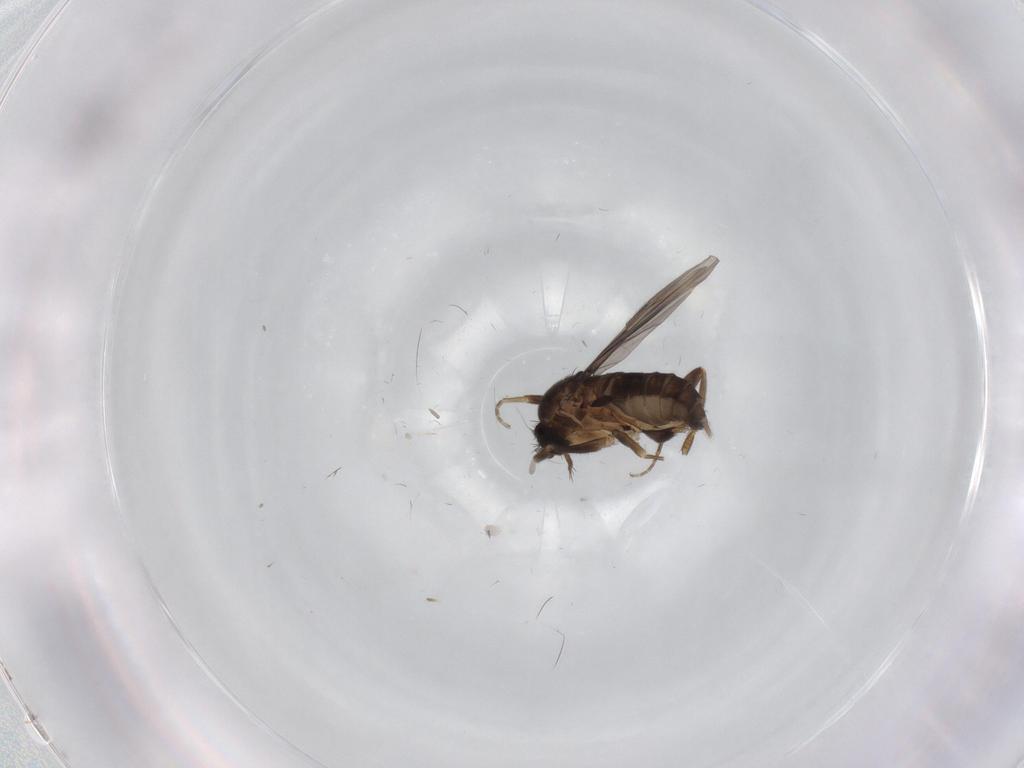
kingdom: Animalia
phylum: Arthropoda
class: Insecta
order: Diptera
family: Phoridae
